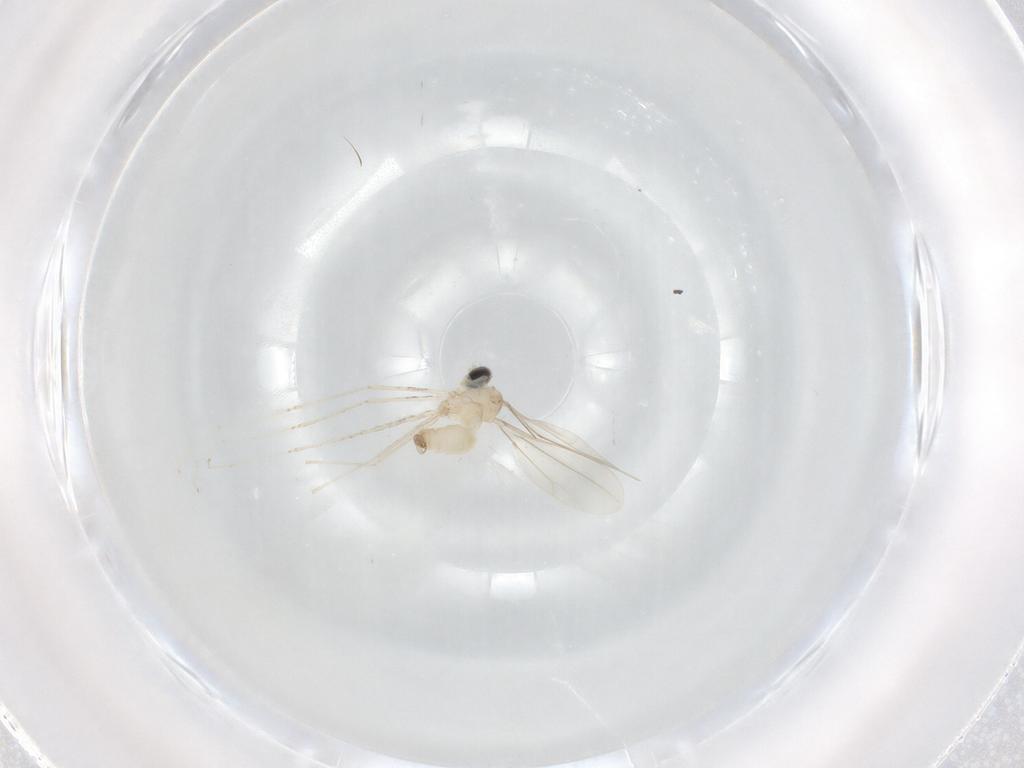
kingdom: Animalia
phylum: Arthropoda
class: Insecta
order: Diptera
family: Cecidomyiidae
